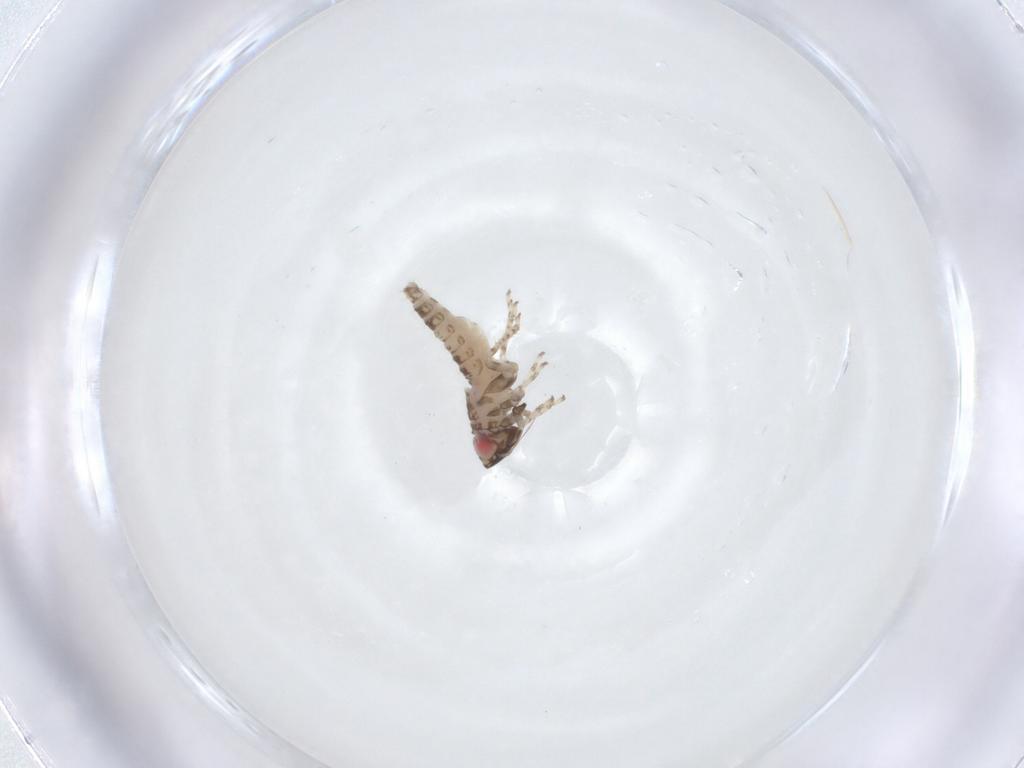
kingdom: Animalia
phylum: Arthropoda
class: Insecta
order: Hemiptera
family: Cicadellidae
